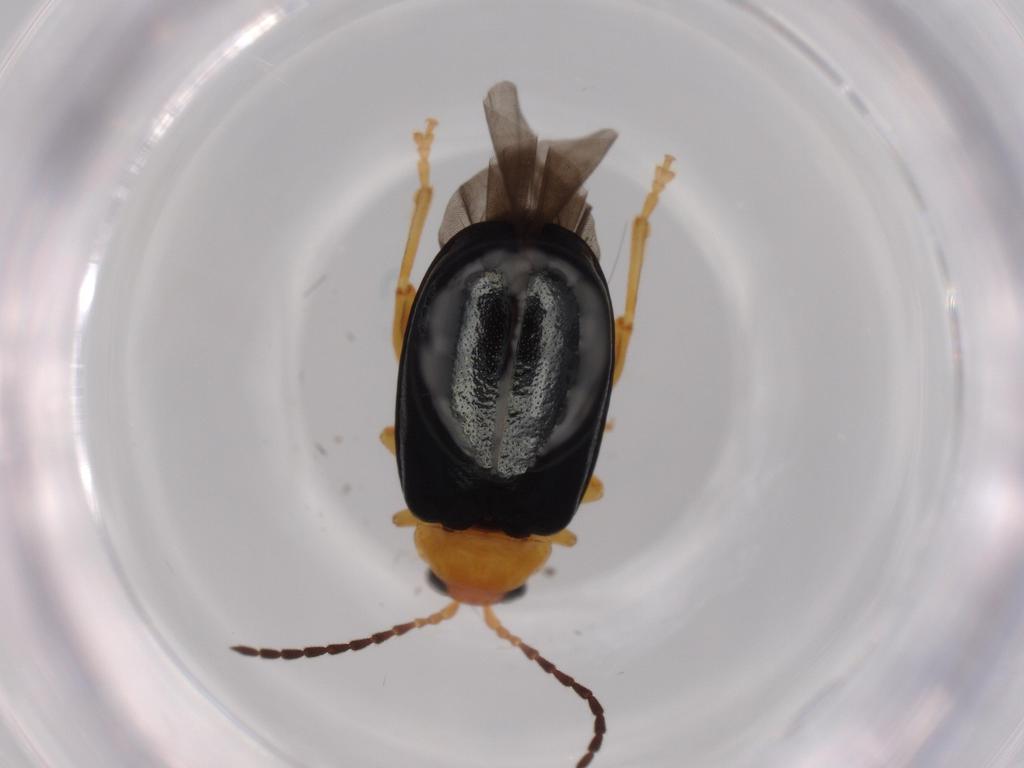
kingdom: Animalia
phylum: Arthropoda
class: Insecta
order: Coleoptera
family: Chrysomelidae
